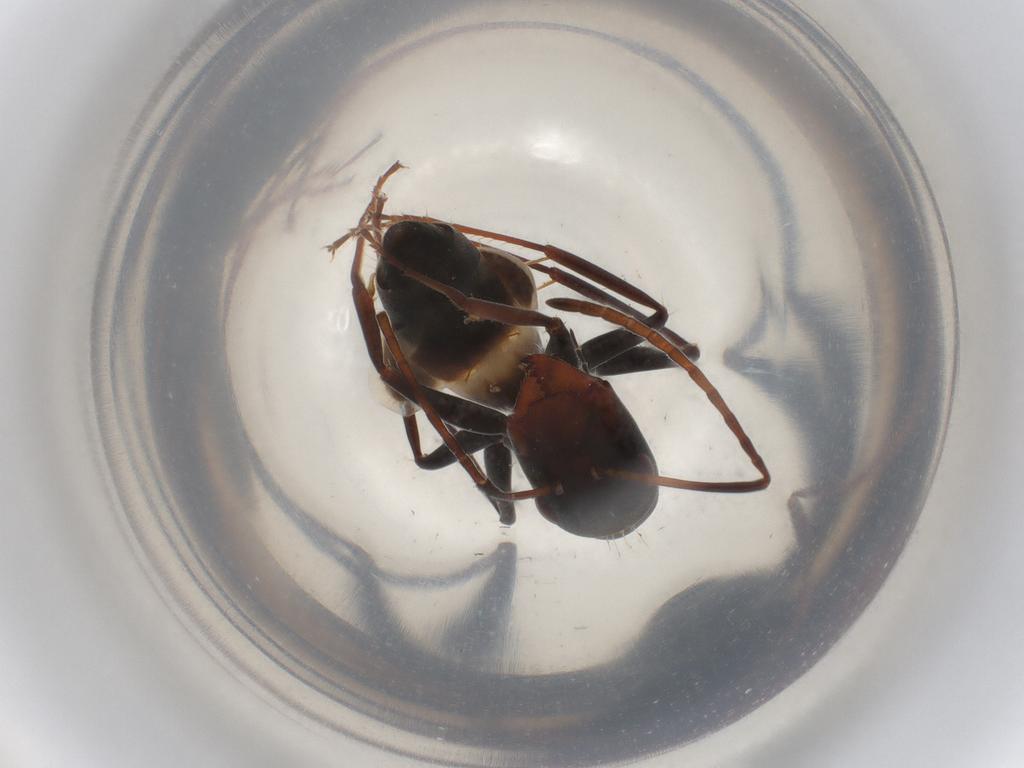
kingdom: Animalia
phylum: Arthropoda
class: Insecta
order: Hymenoptera
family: Formicidae
